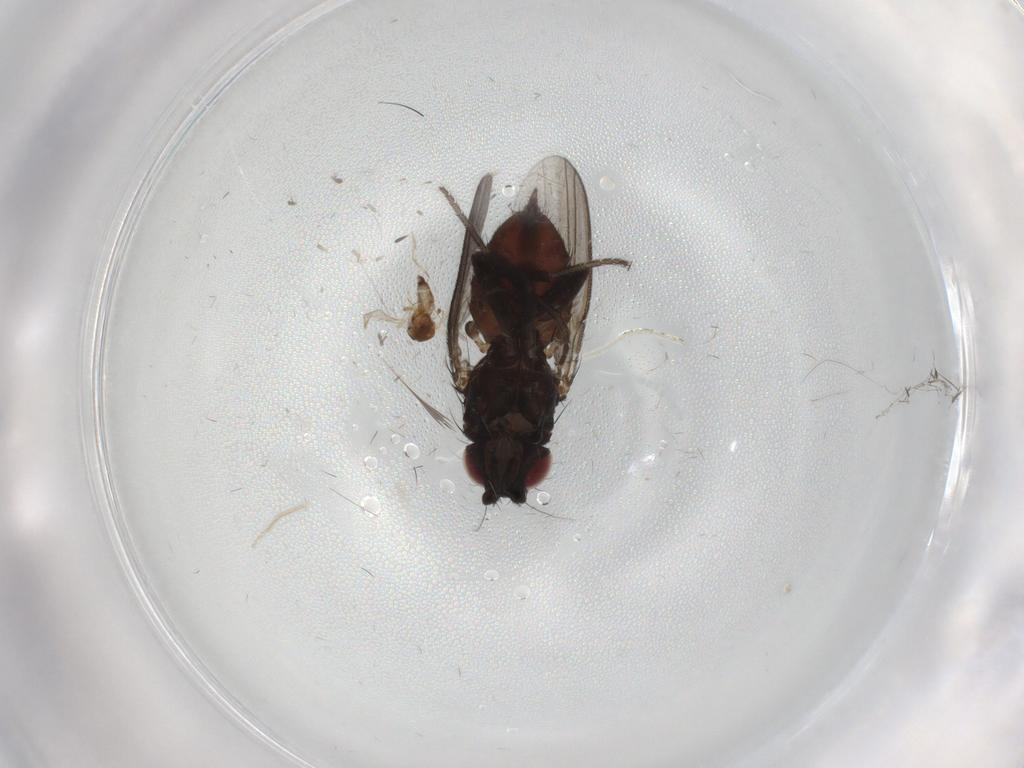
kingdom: Animalia
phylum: Arthropoda
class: Insecta
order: Diptera
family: Milichiidae
